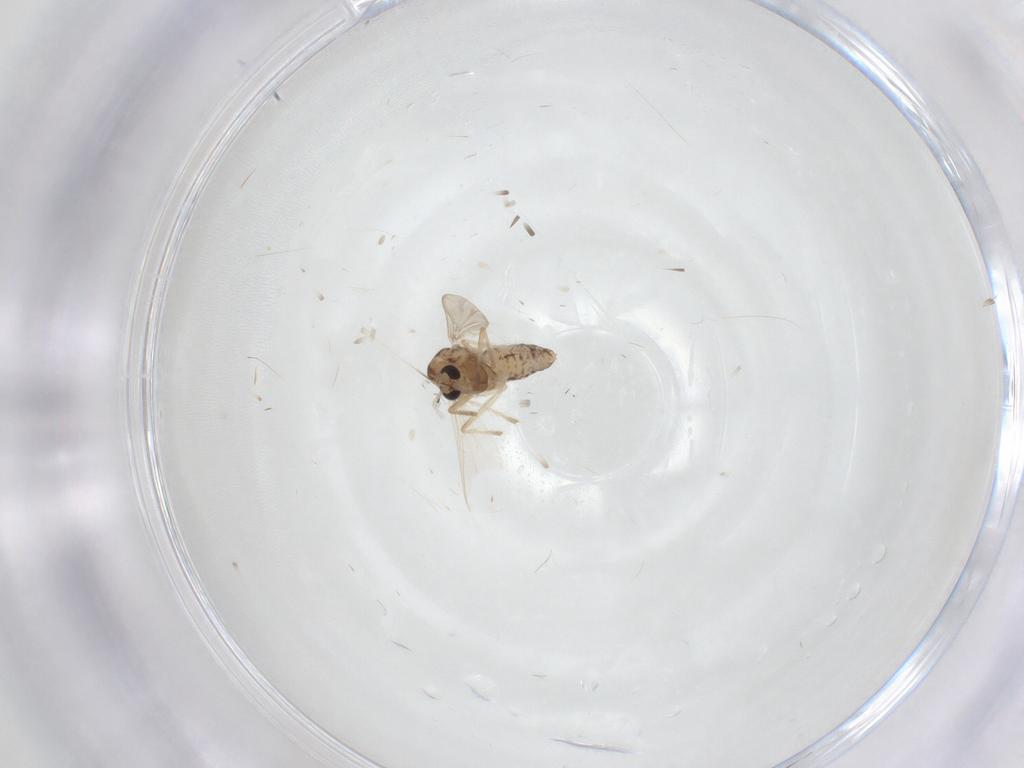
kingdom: Animalia
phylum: Arthropoda
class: Insecta
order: Diptera
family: Chironomidae
